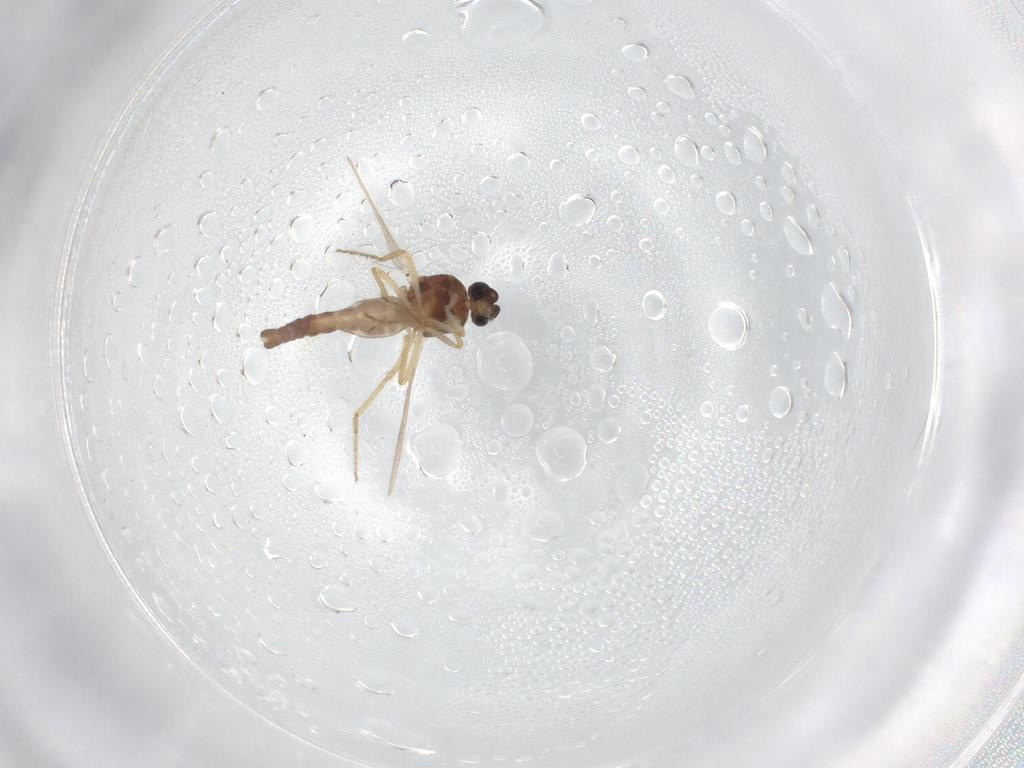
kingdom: Animalia
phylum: Arthropoda
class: Insecta
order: Diptera
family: Ceratopogonidae
